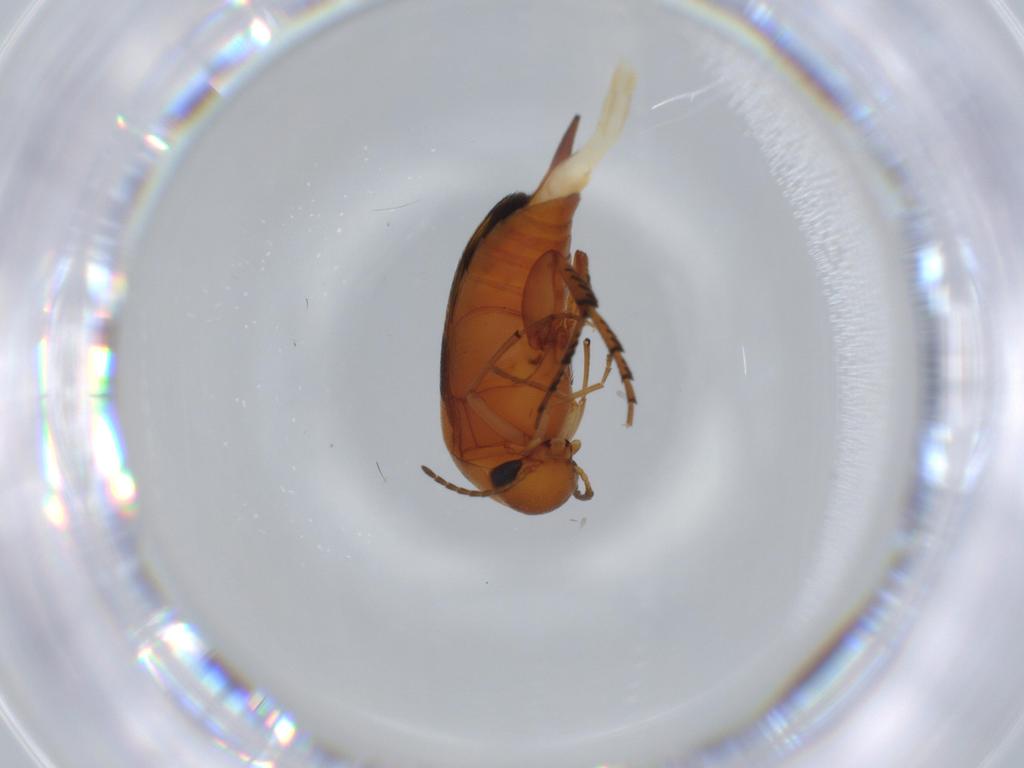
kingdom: Animalia
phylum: Arthropoda
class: Insecta
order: Coleoptera
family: Mordellidae
